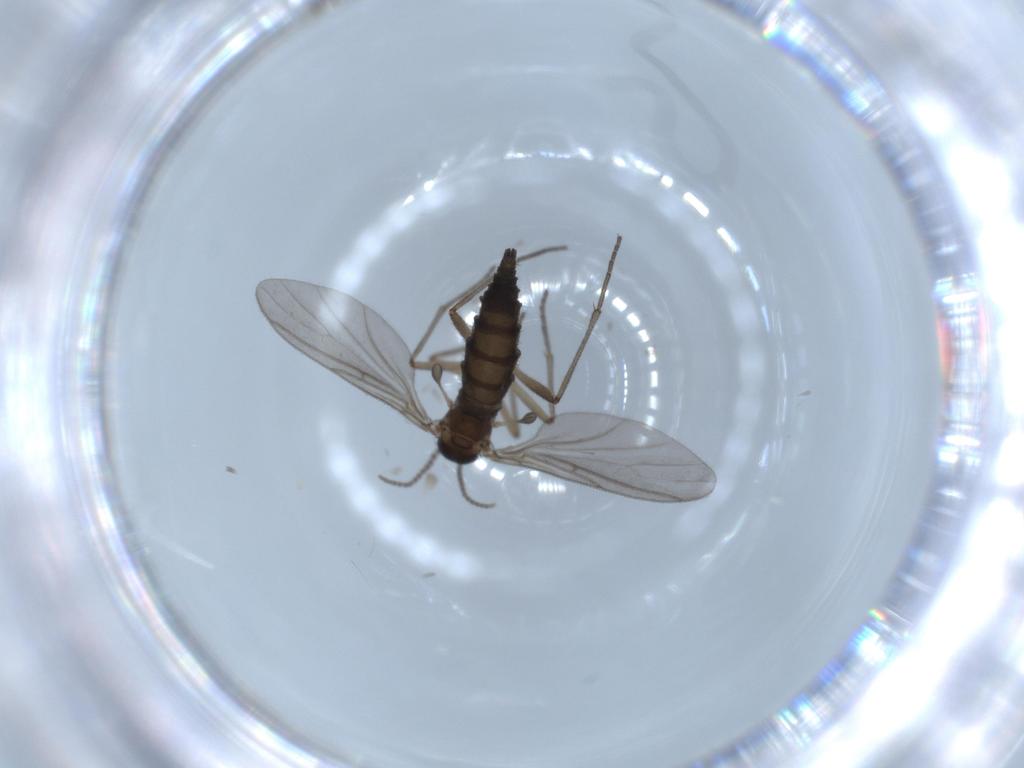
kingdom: Animalia
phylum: Arthropoda
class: Insecta
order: Diptera
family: Sciaridae
